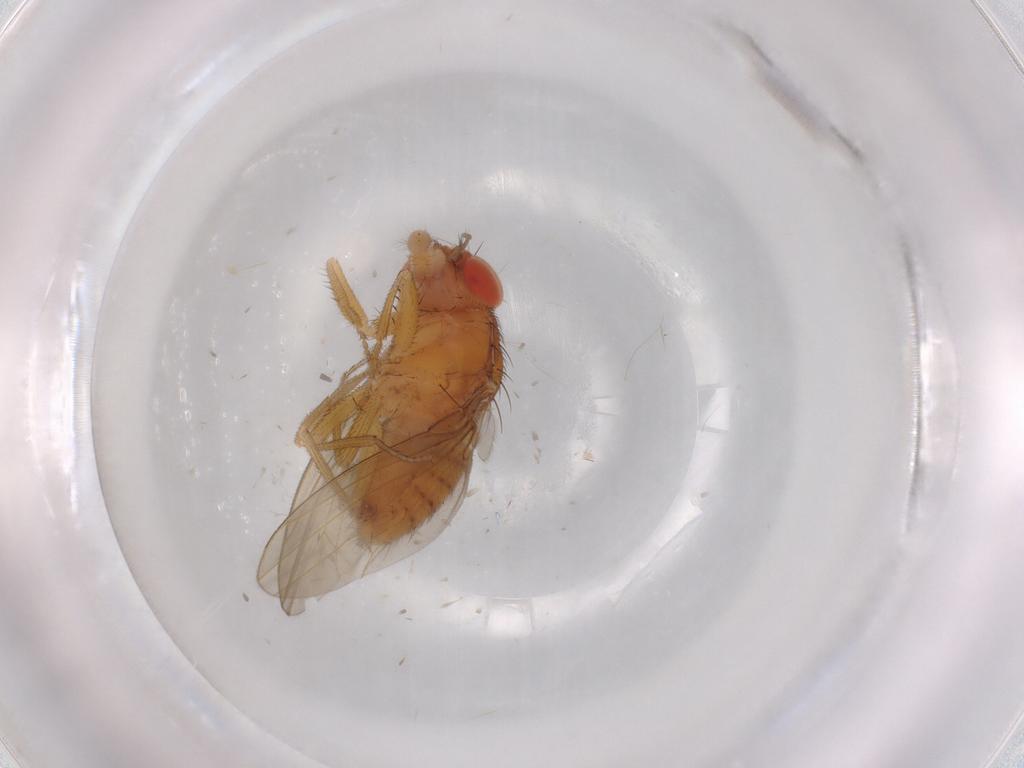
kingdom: Animalia
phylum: Arthropoda
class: Insecta
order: Diptera
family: Drosophilidae
